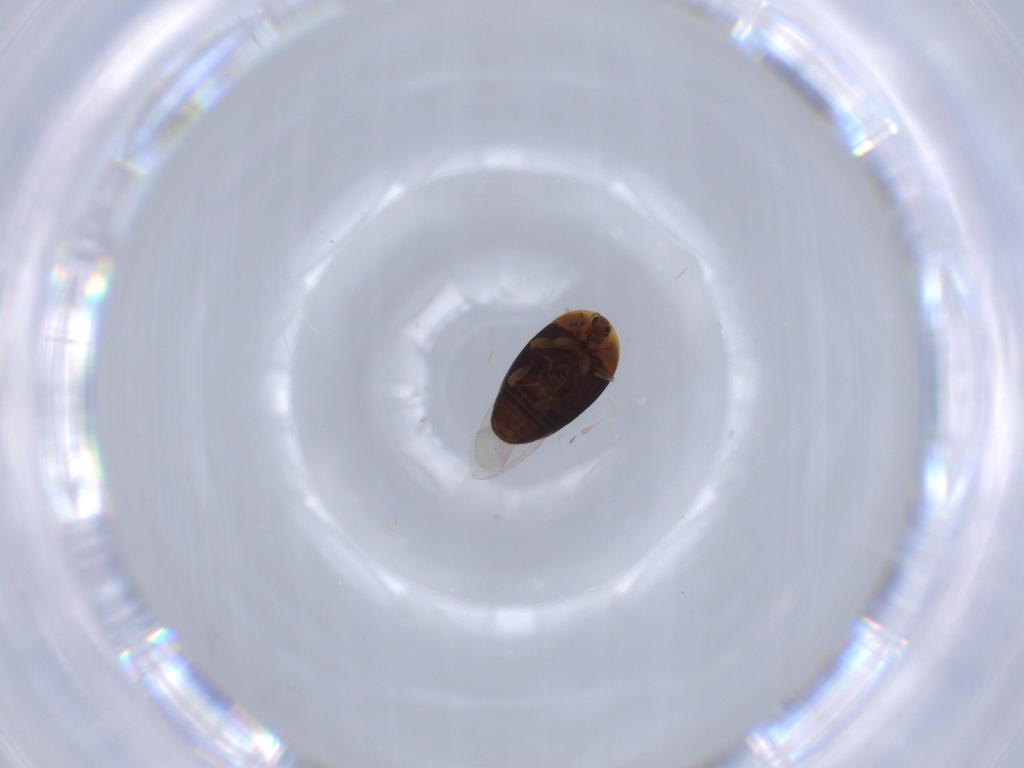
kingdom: Animalia
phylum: Arthropoda
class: Insecta
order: Coleoptera
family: Corylophidae
